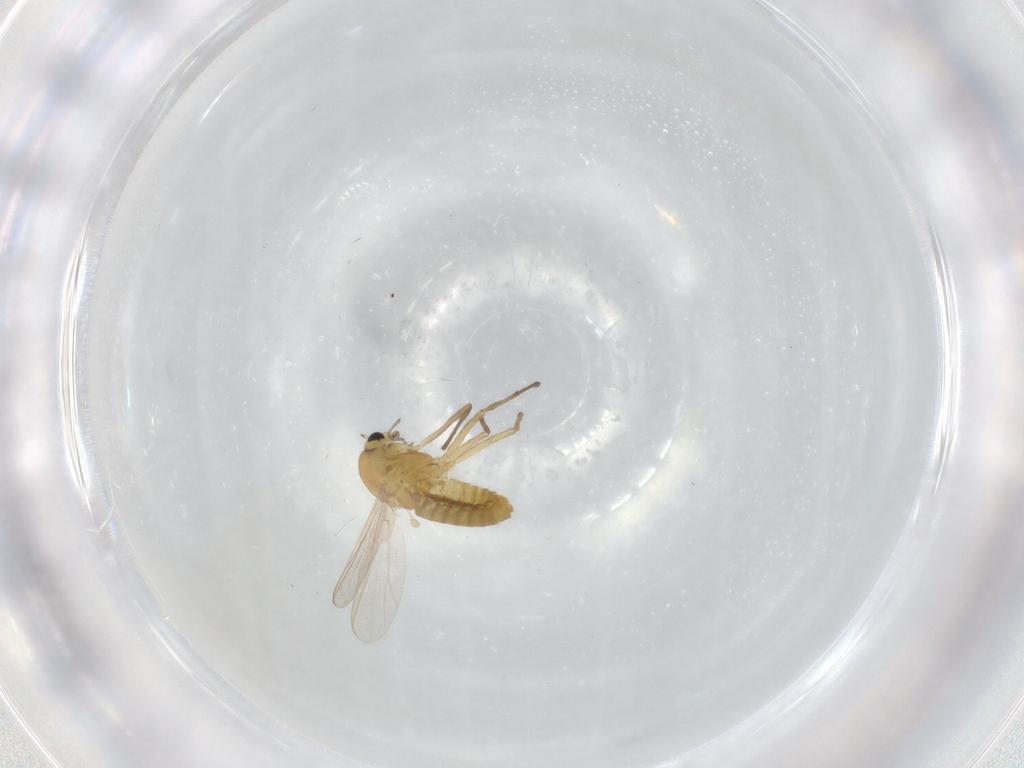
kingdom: Animalia
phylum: Arthropoda
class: Insecta
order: Diptera
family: Chironomidae
